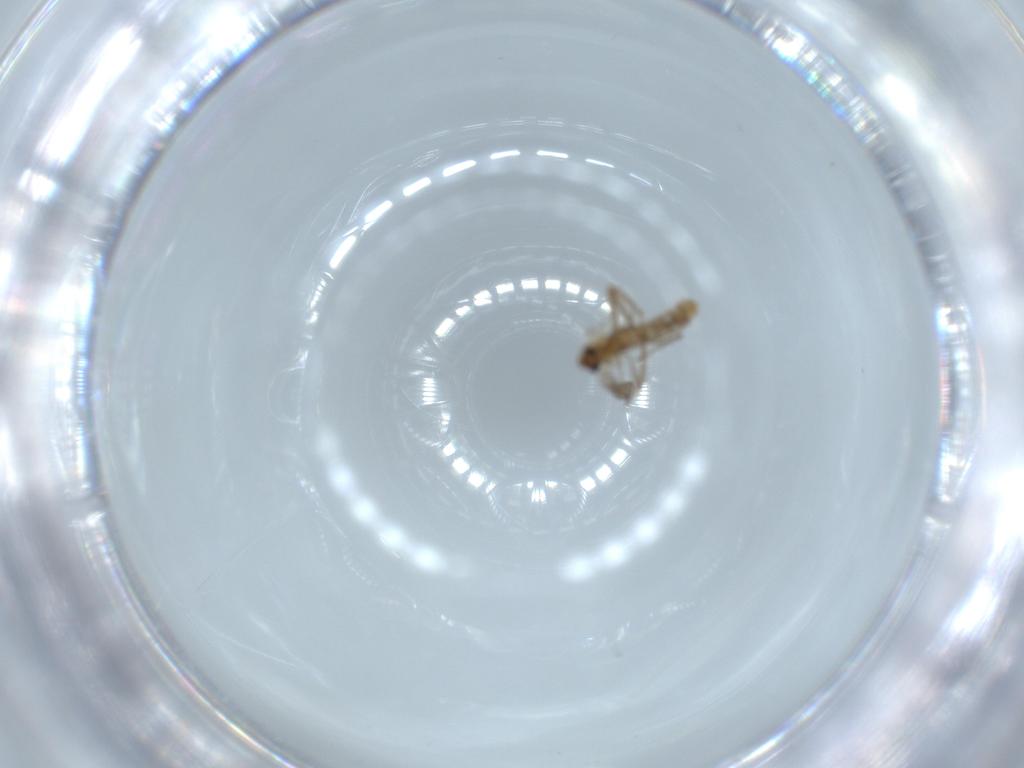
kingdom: Animalia
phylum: Arthropoda
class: Insecta
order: Diptera
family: Chironomidae
